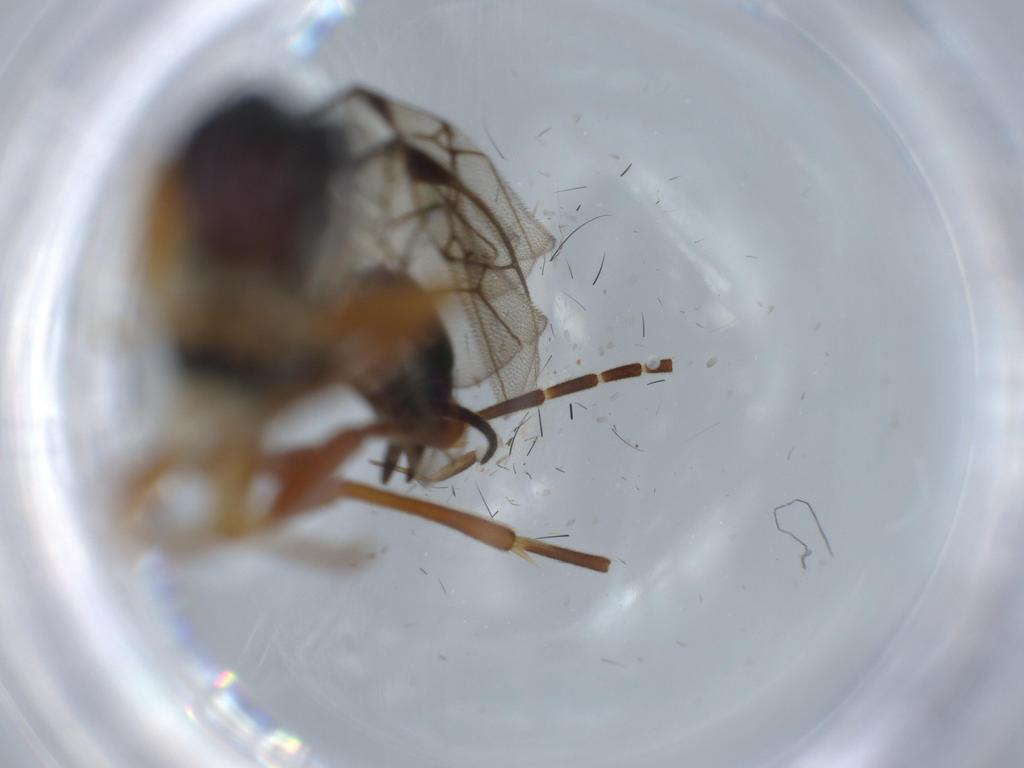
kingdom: Animalia
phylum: Arthropoda
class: Insecta
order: Hymenoptera
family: Ichneumonidae
